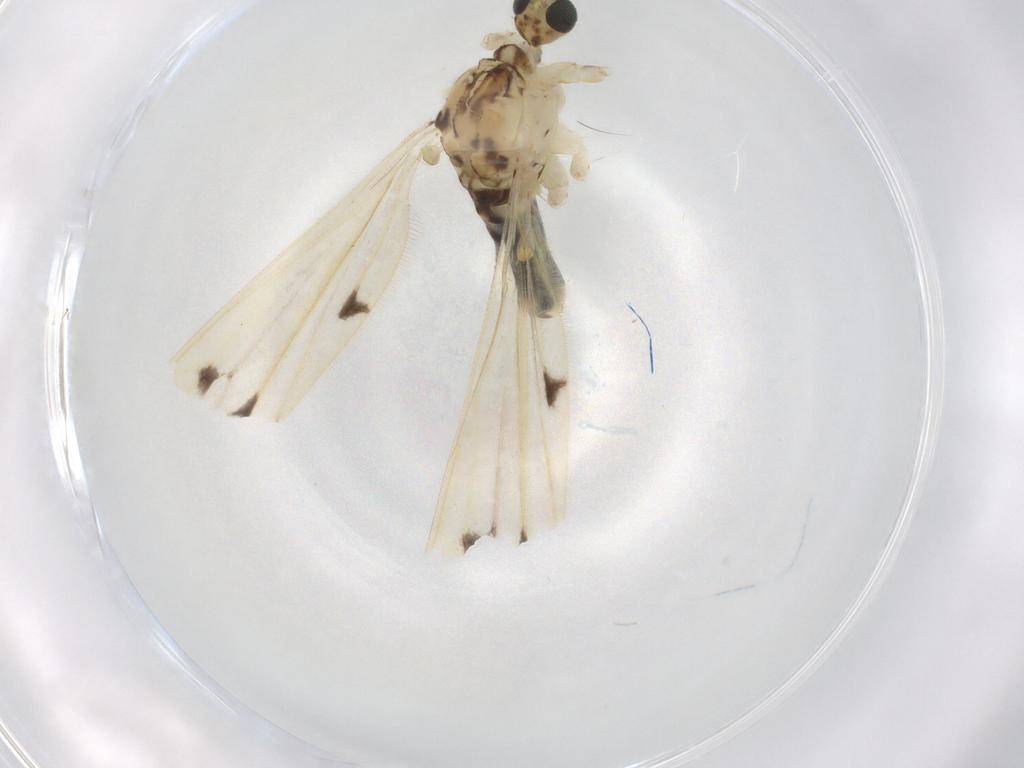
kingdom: Animalia
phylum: Arthropoda
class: Insecta
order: Diptera
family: Limoniidae
